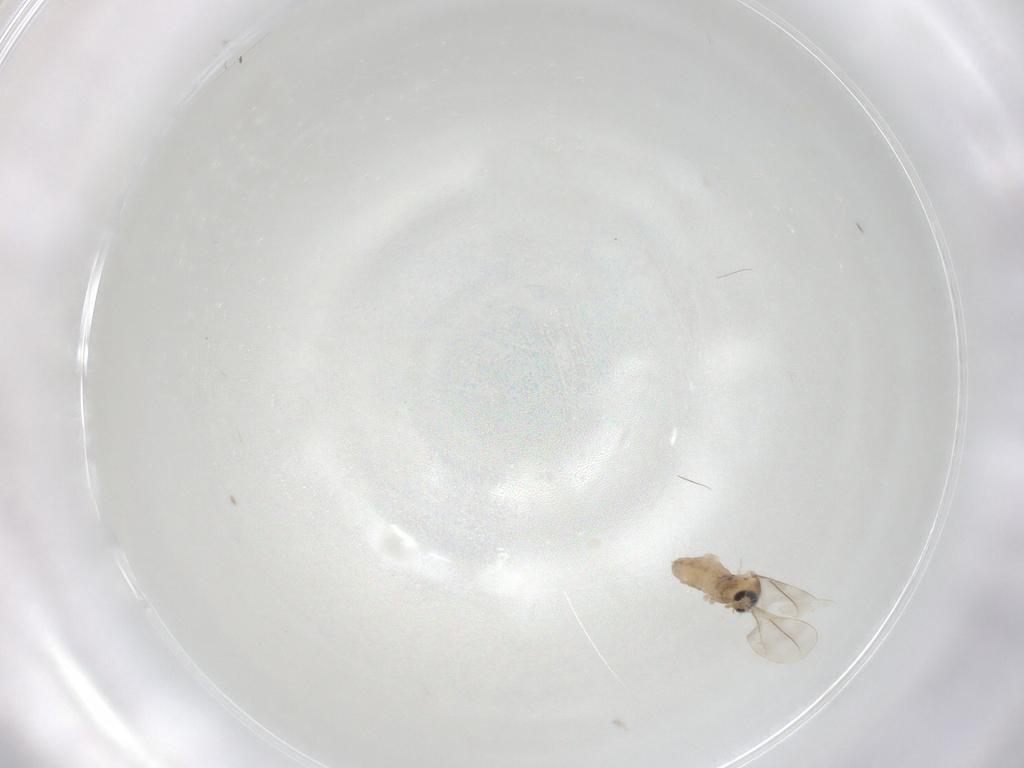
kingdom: Animalia
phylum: Arthropoda
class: Insecta
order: Diptera
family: Cecidomyiidae
